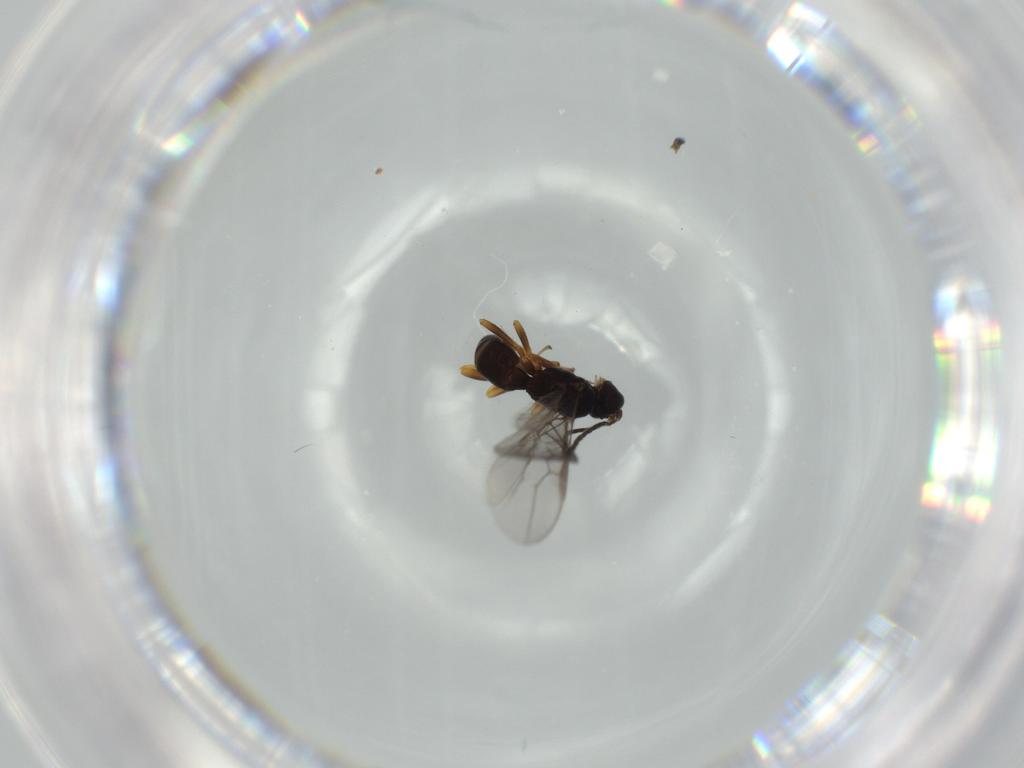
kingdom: Animalia
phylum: Arthropoda
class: Insecta
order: Hymenoptera
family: Braconidae
